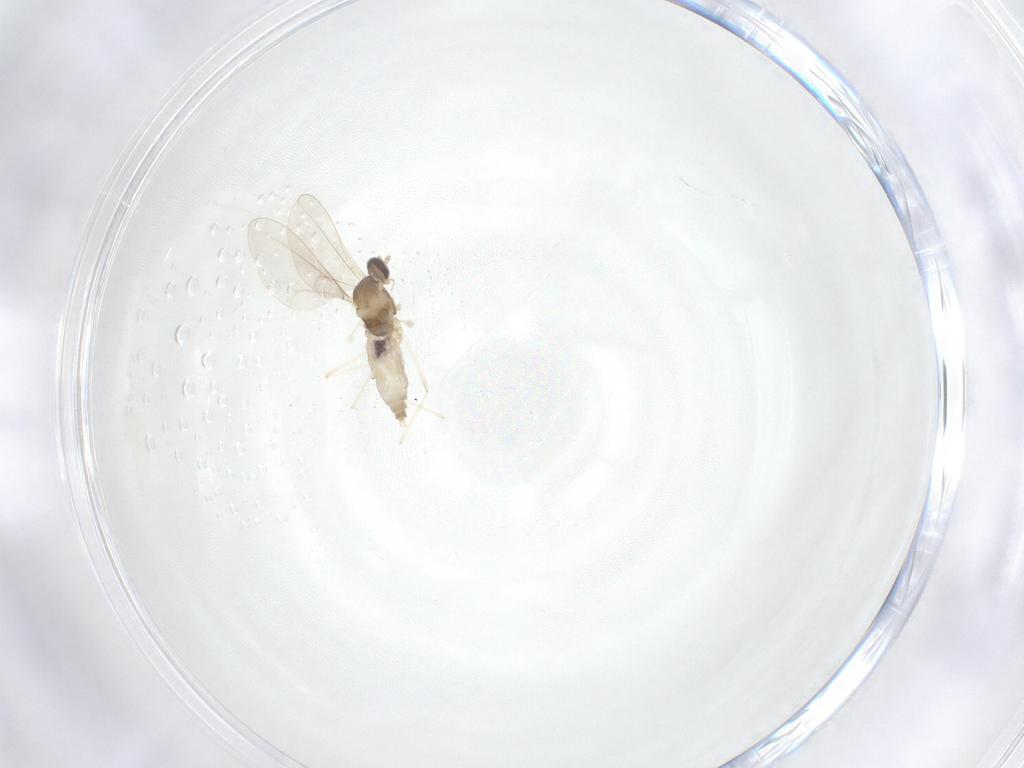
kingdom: Animalia
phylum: Arthropoda
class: Insecta
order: Diptera
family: Cecidomyiidae
